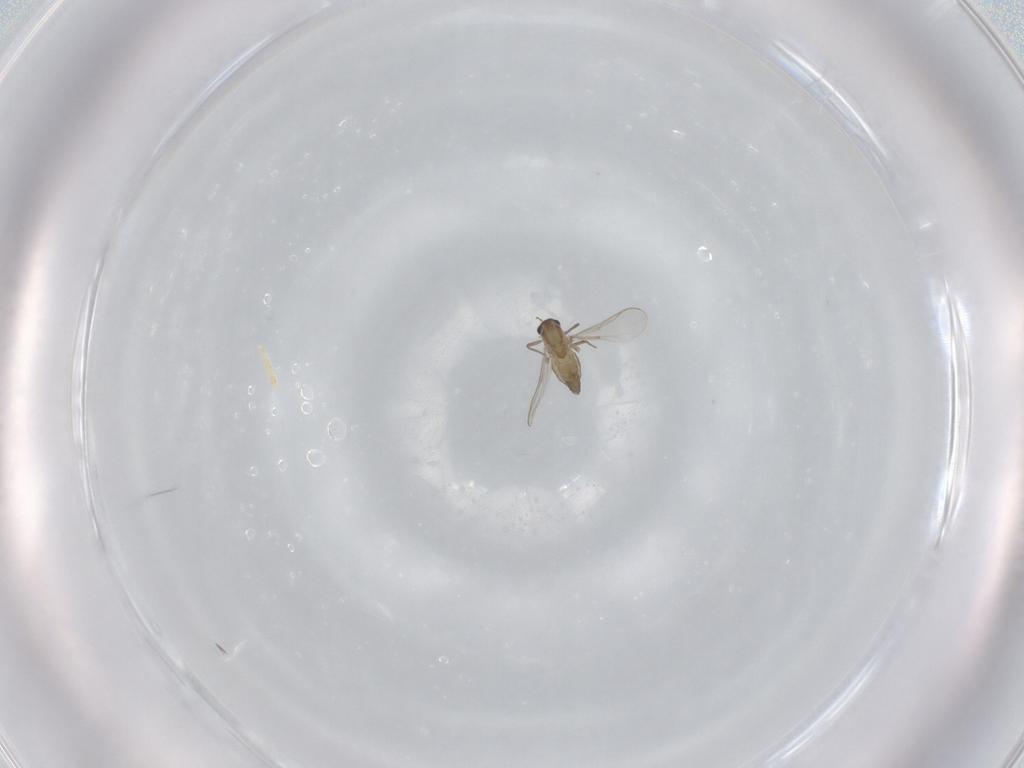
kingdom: Animalia
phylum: Arthropoda
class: Insecta
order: Diptera
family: Chironomidae
